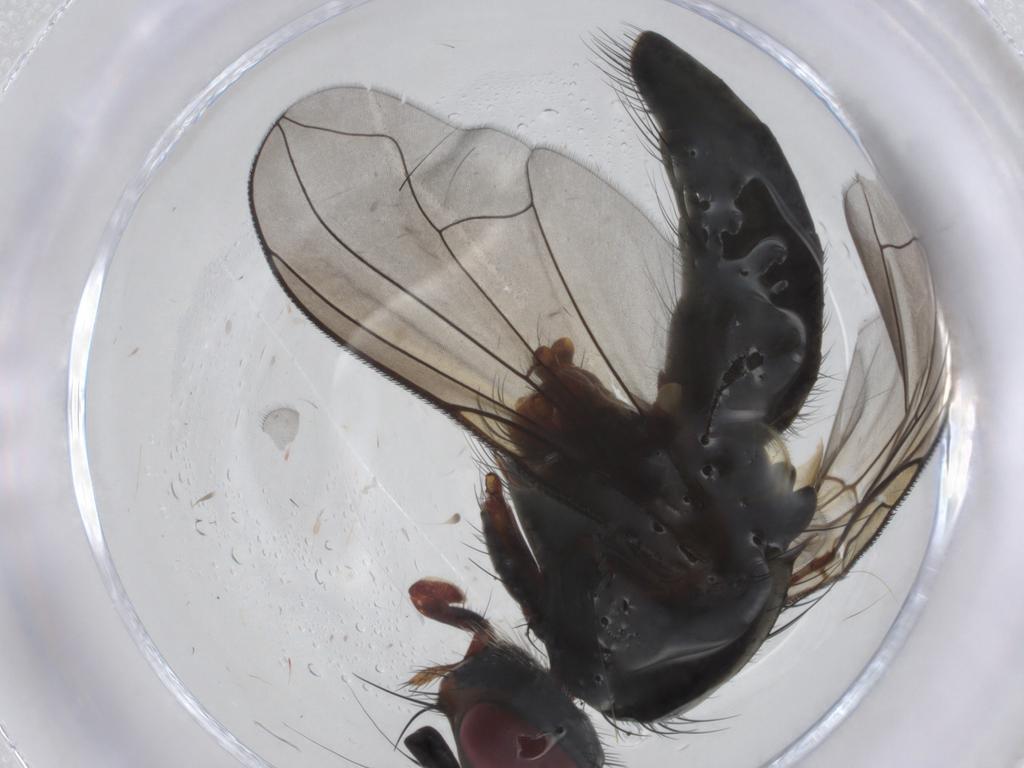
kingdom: Animalia
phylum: Arthropoda
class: Insecta
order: Diptera
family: Tachinidae
